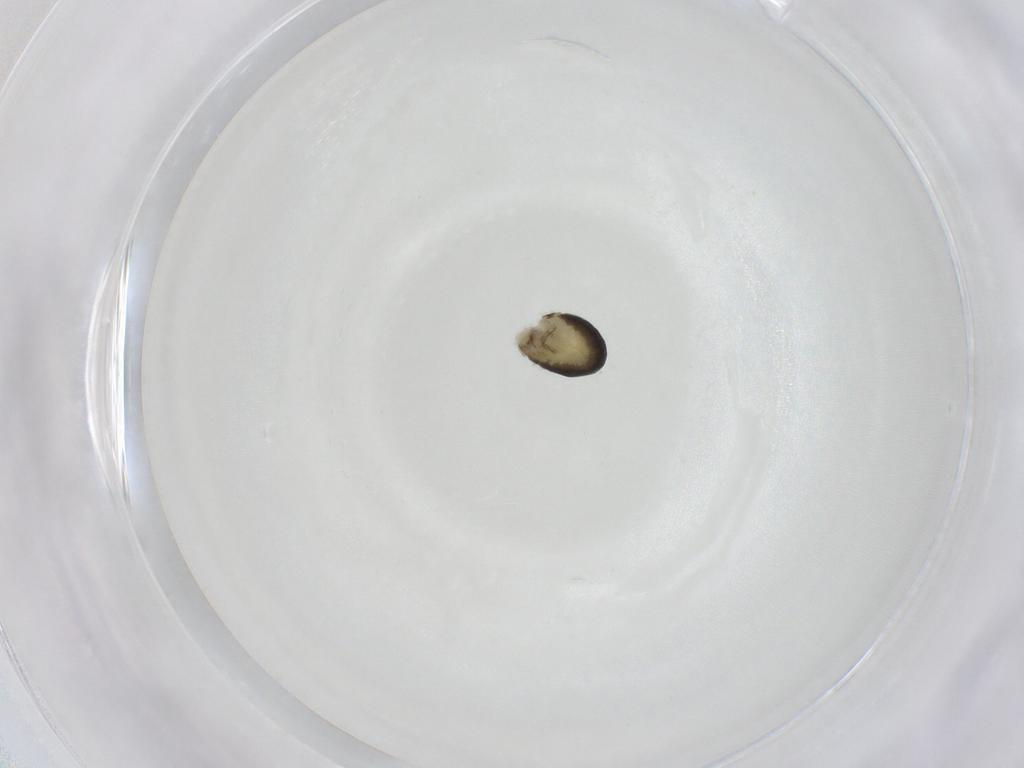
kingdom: Animalia
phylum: Arthropoda
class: Insecta
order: Hymenoptera
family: Dryinidae
